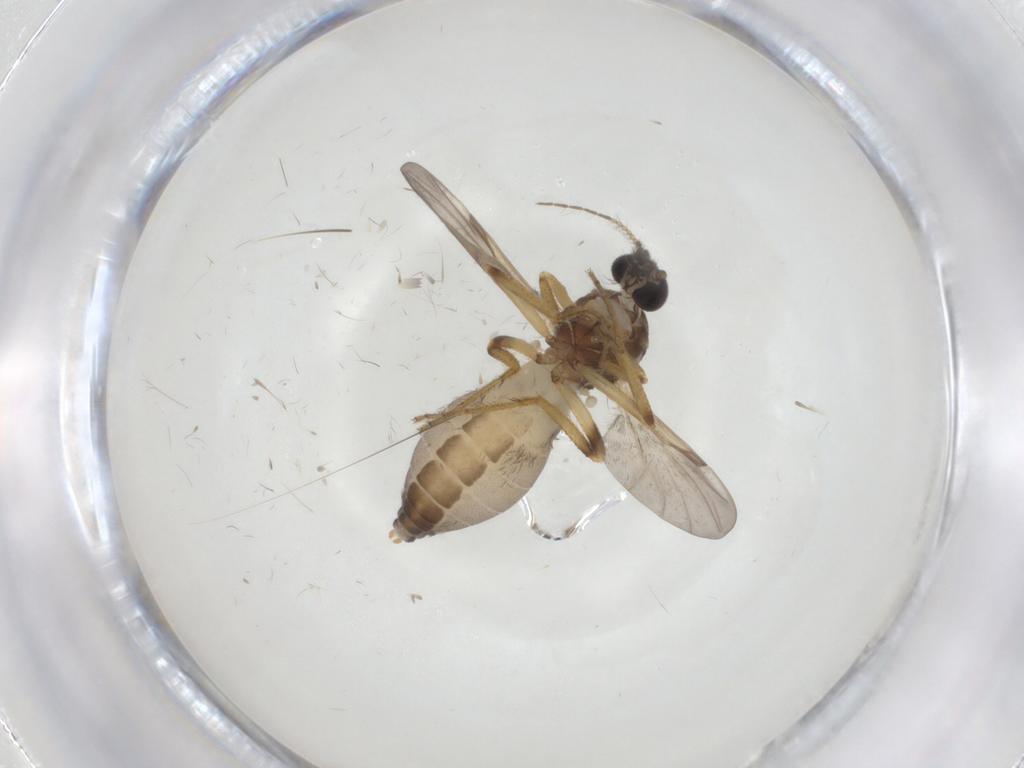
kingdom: Animalia
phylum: Arthropoda
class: Insecta
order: Diptera
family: Ceratopogonidae
